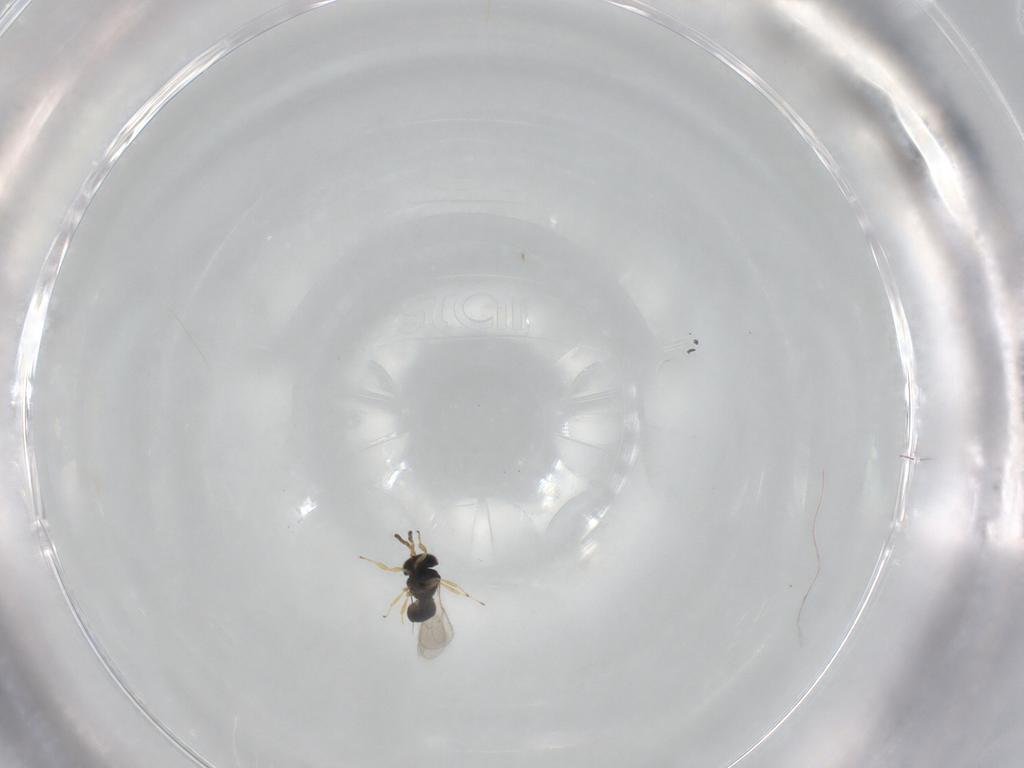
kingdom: Animalia
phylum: Arthropoda
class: Insecta
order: Hymenoptera
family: Scelionidae
